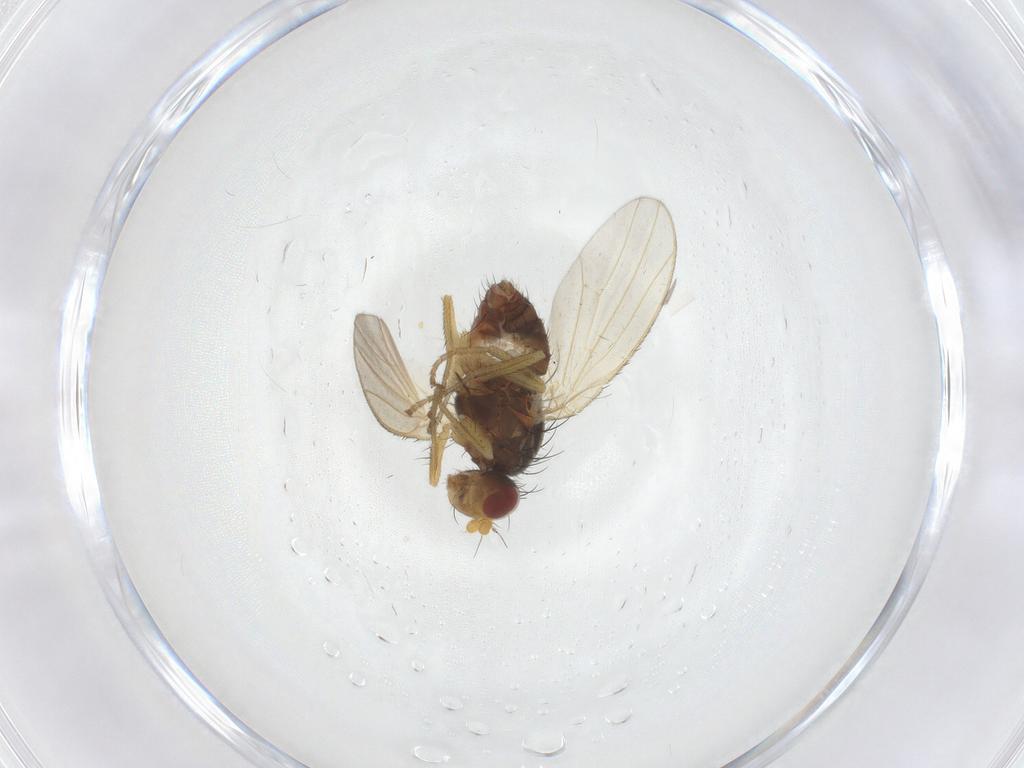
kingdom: Animalia
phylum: Arthropoda
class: Insecta
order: Diptera
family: Heleomyzidae
